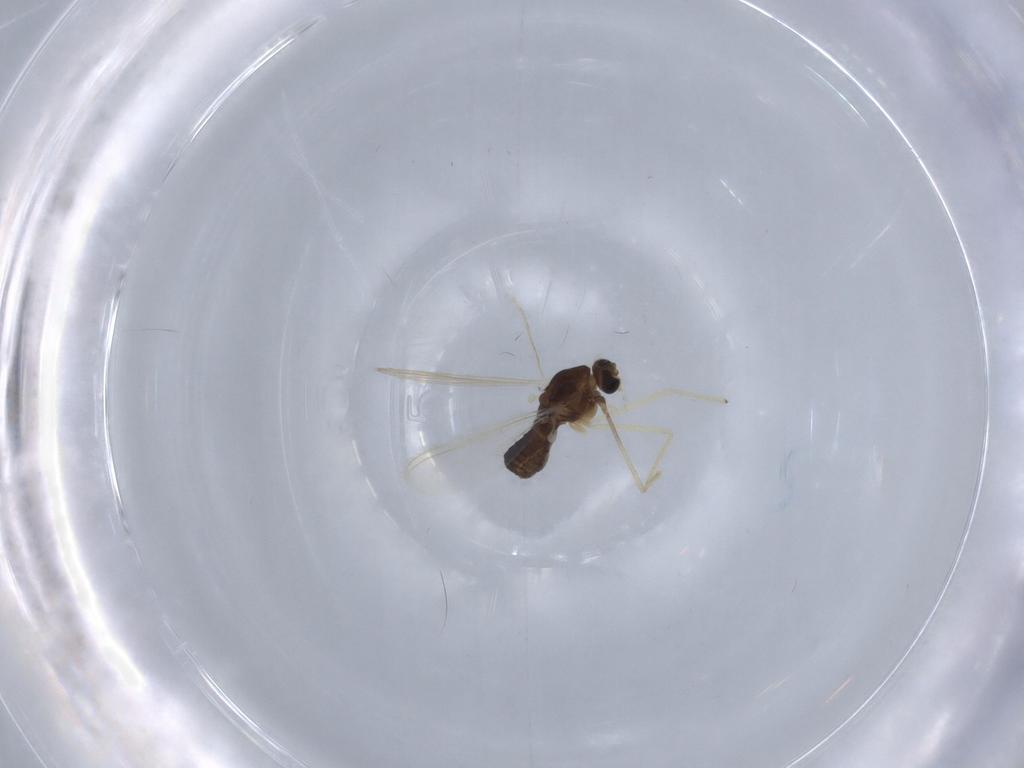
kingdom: Animalia
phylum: Arthropoda
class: Insecta
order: Diptera
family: Chironomidae
